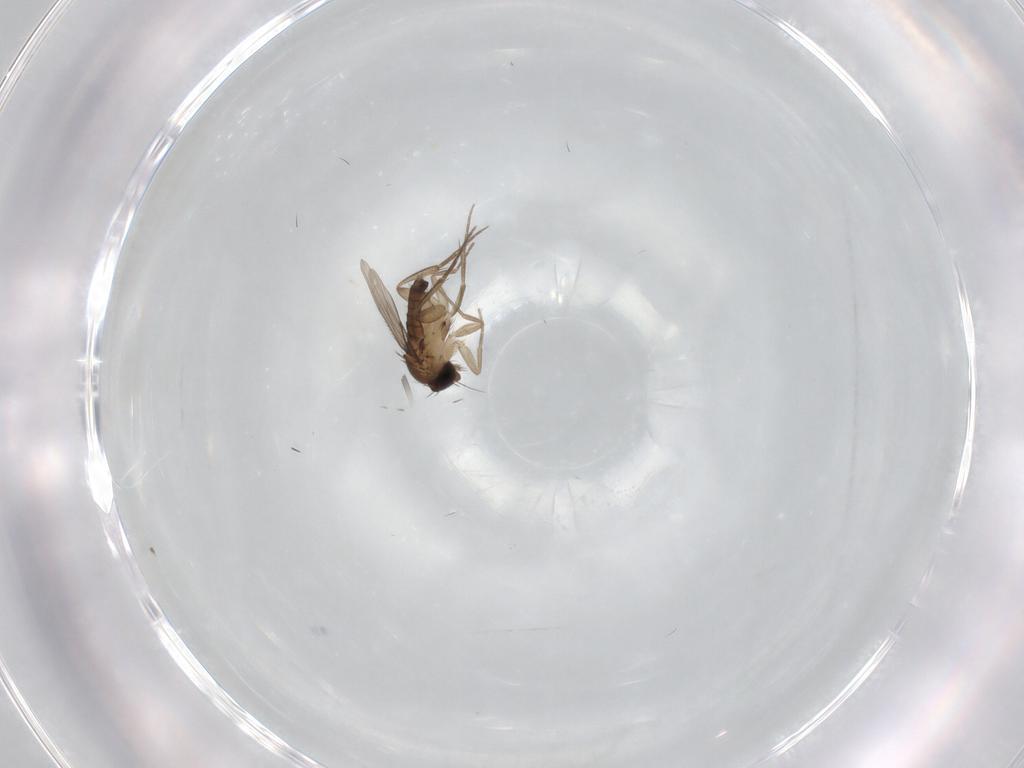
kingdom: Animalia
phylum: Arthropoda
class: Insecta
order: Diptera
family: Phoridae
